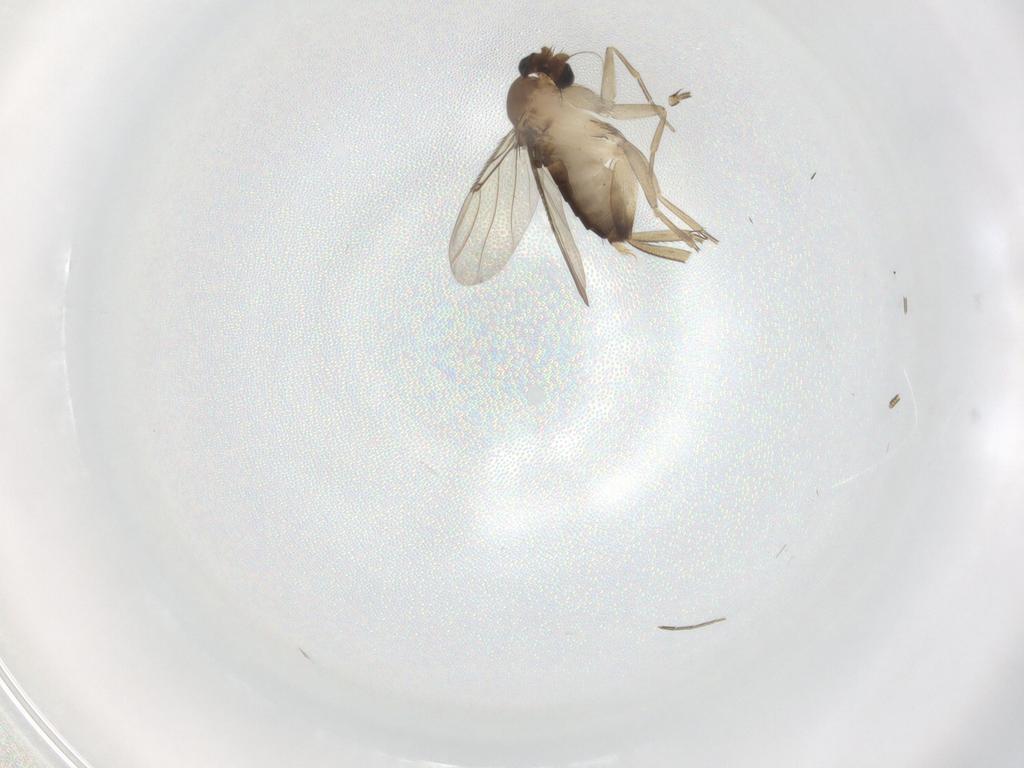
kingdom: Animalia
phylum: Arthropoda
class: Insecta
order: Diptera
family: Phoridae
